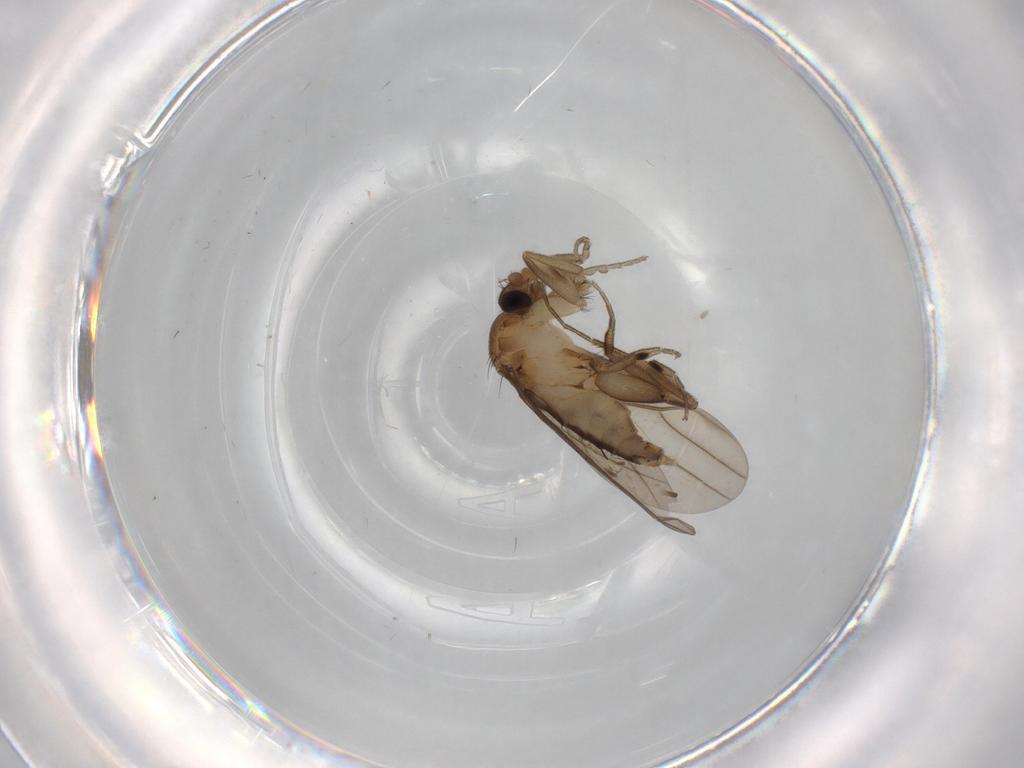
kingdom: Animalia
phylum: Arthropoda
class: Insecta
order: Diptera
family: Phoridae
